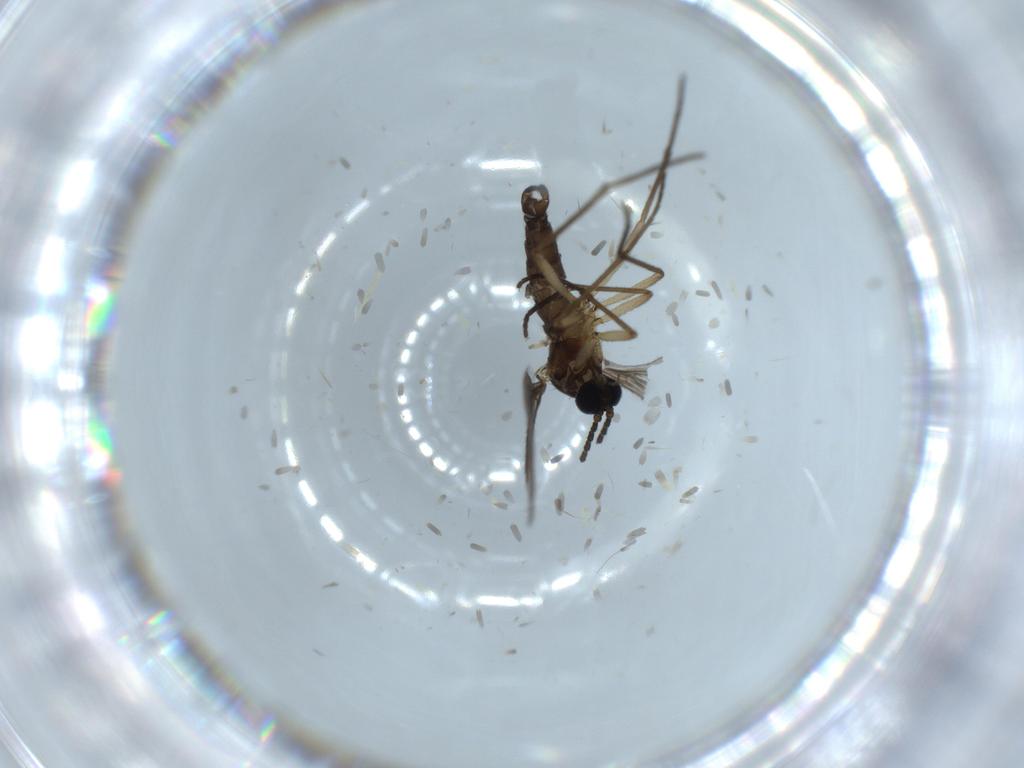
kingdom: Animalia
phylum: Arthropoda
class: Insecta
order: Diptera
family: Sciaridae
